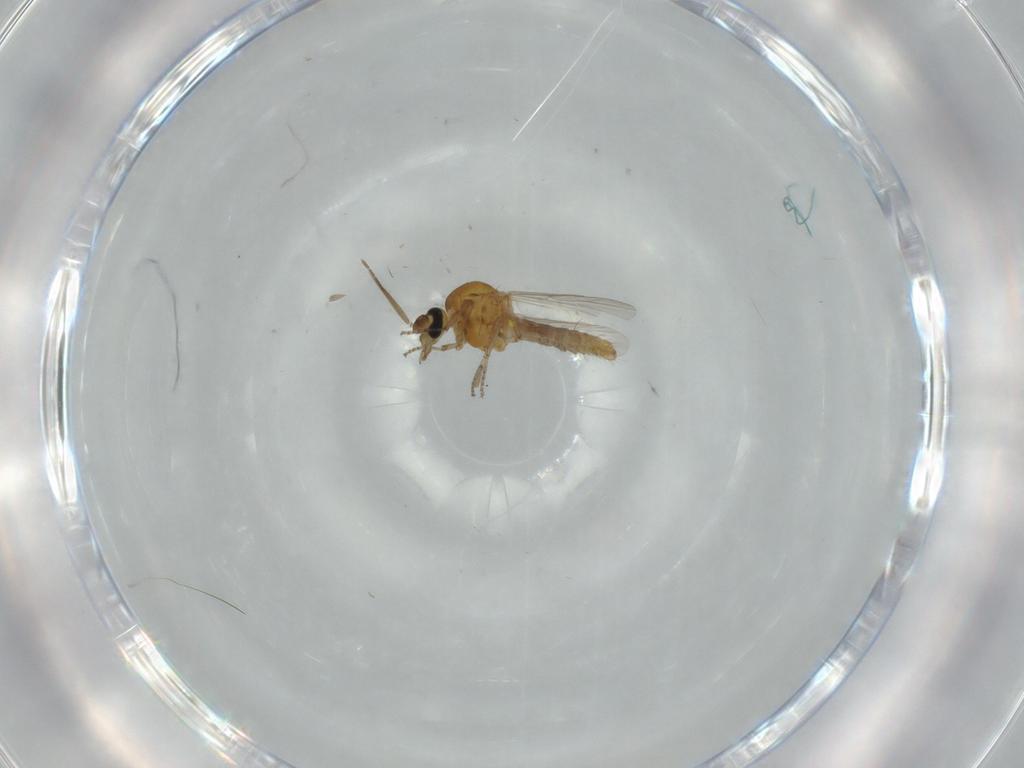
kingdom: Animalia
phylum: Arthropoda
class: Insecta
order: Diptera
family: Ceratopogonidae
